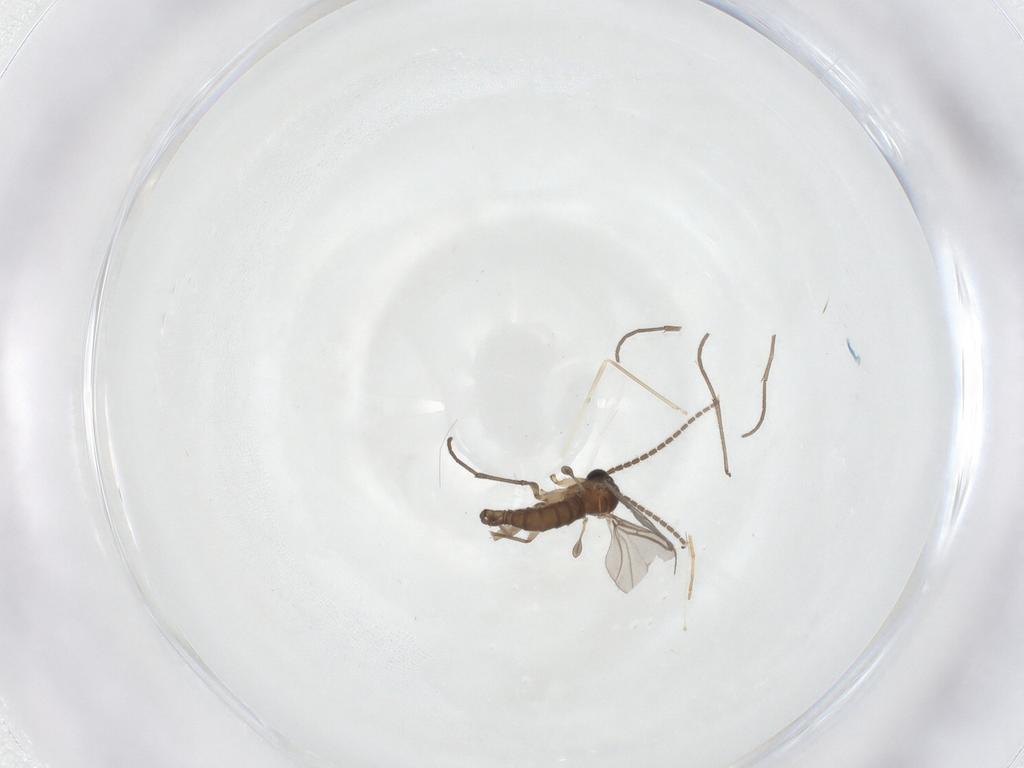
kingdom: Animalia
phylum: Arthropoda
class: Insecta
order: Diptera
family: Sciaridae
